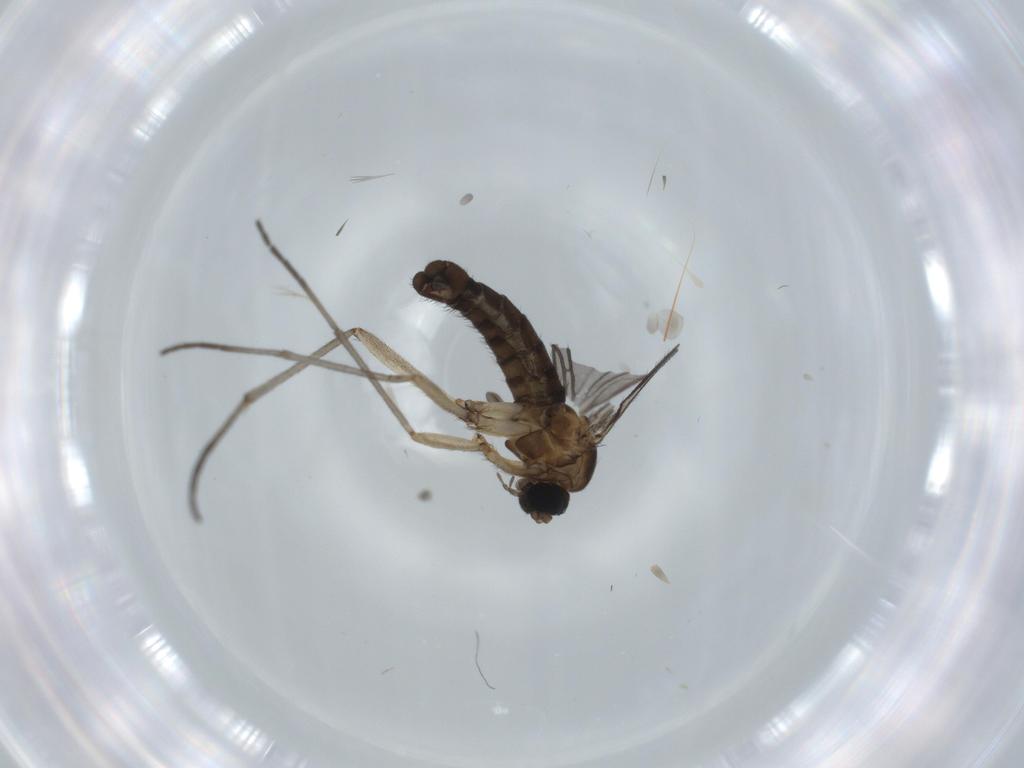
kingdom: Animalia
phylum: Arthropoda
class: Insecta
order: Diptera
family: Sciaridae
